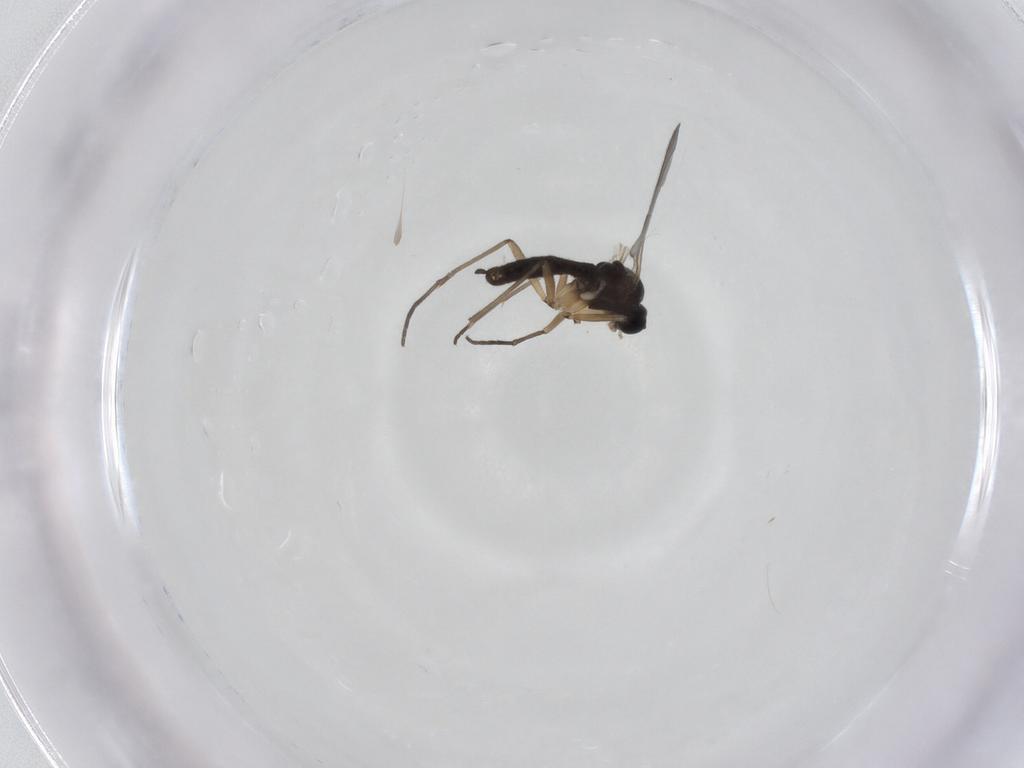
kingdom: Animalia
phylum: Arthropoda
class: Insecta
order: Diptera
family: Sciaridae
